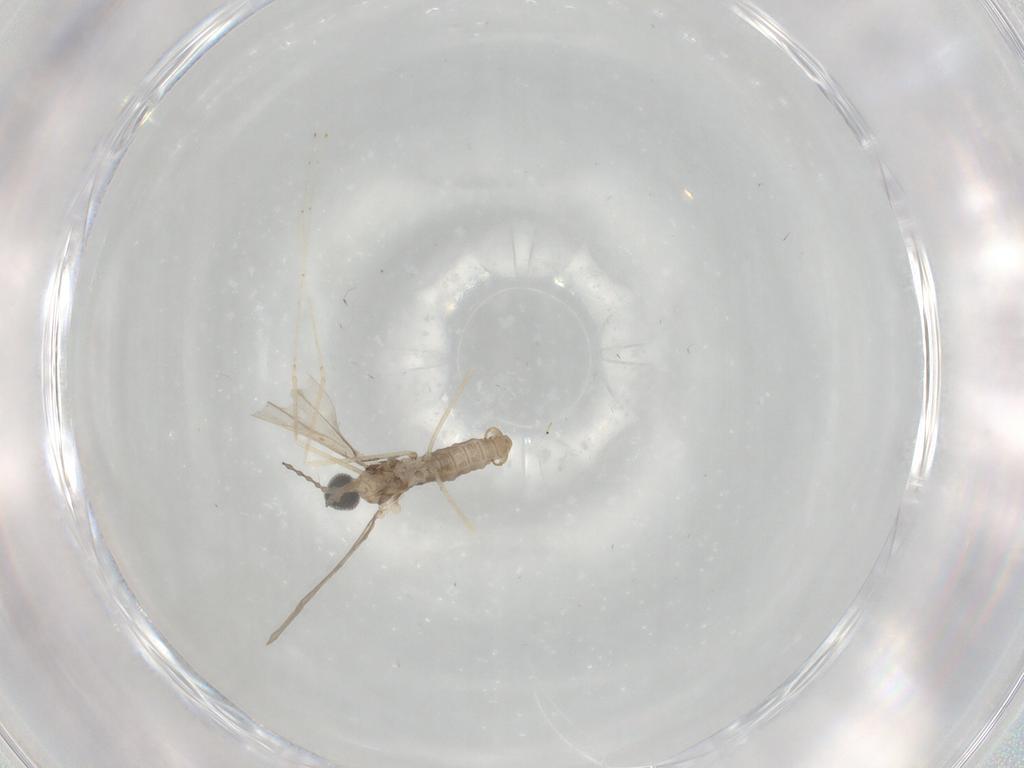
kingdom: Animalia
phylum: Arthropoda
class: Insecta
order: Diptera
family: Cecidomyiidae
